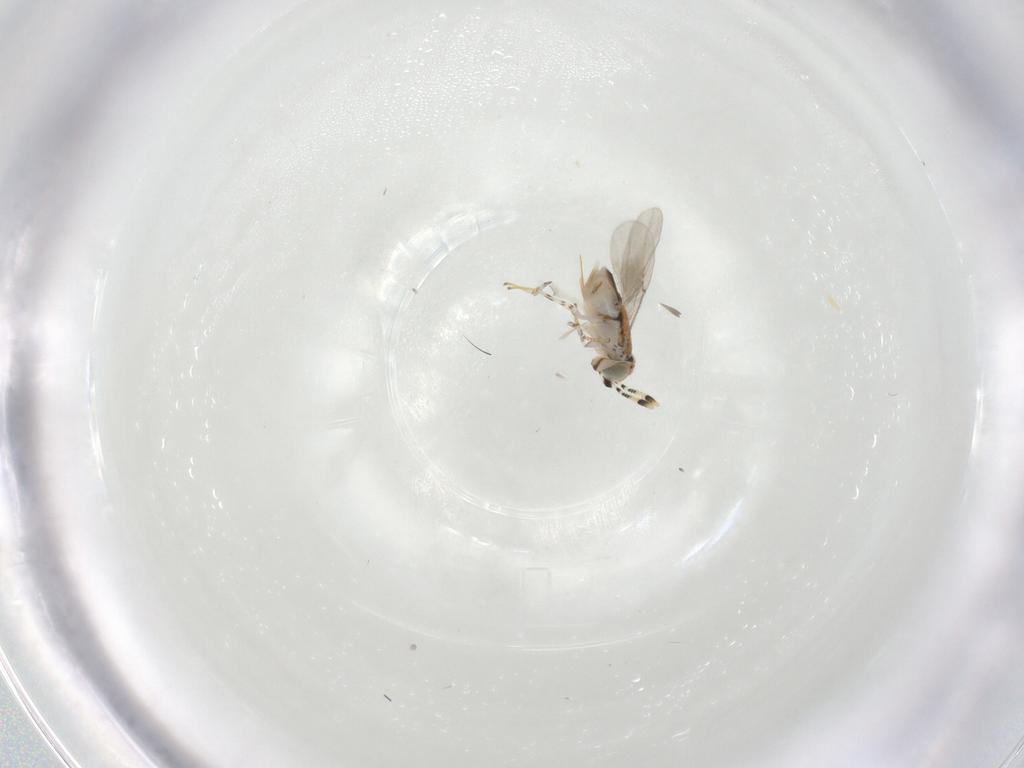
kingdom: Animalia
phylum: Arthropoda
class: Insecta
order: Hymenoptera
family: Encyrtidae
